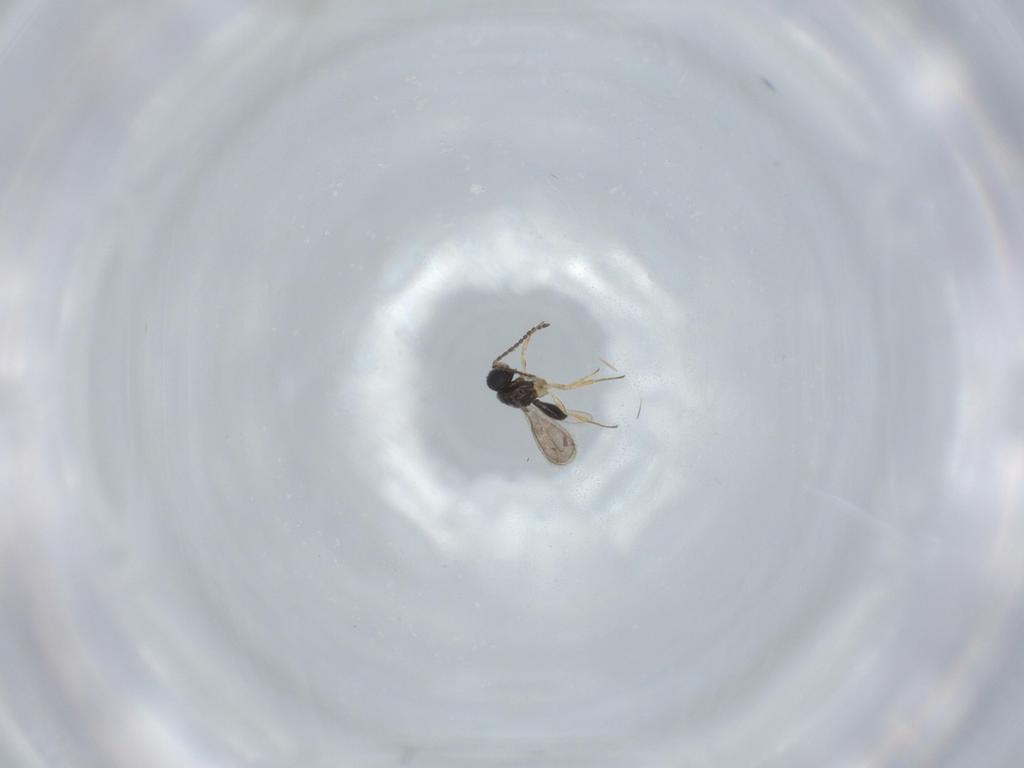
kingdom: Animalia
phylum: Arthropoda
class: Insecta
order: Hymenoptera
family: Scelionidae
